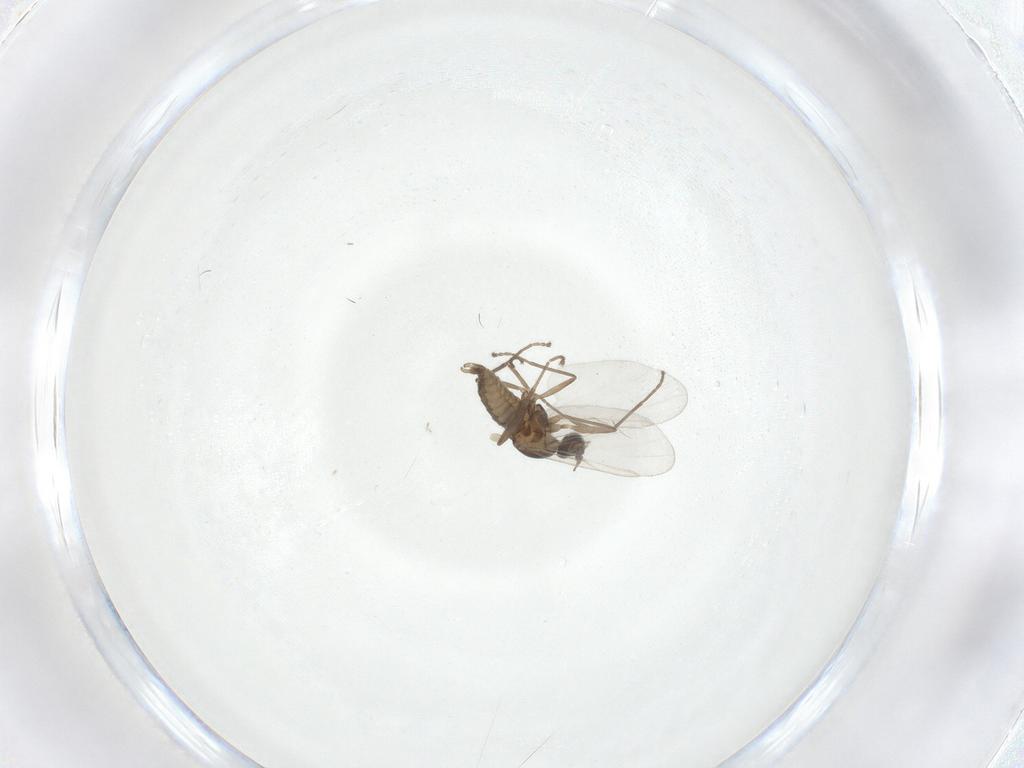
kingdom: Animalia
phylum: Arthropoda
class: Insecta
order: Diptera
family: Cecidomyiidae
